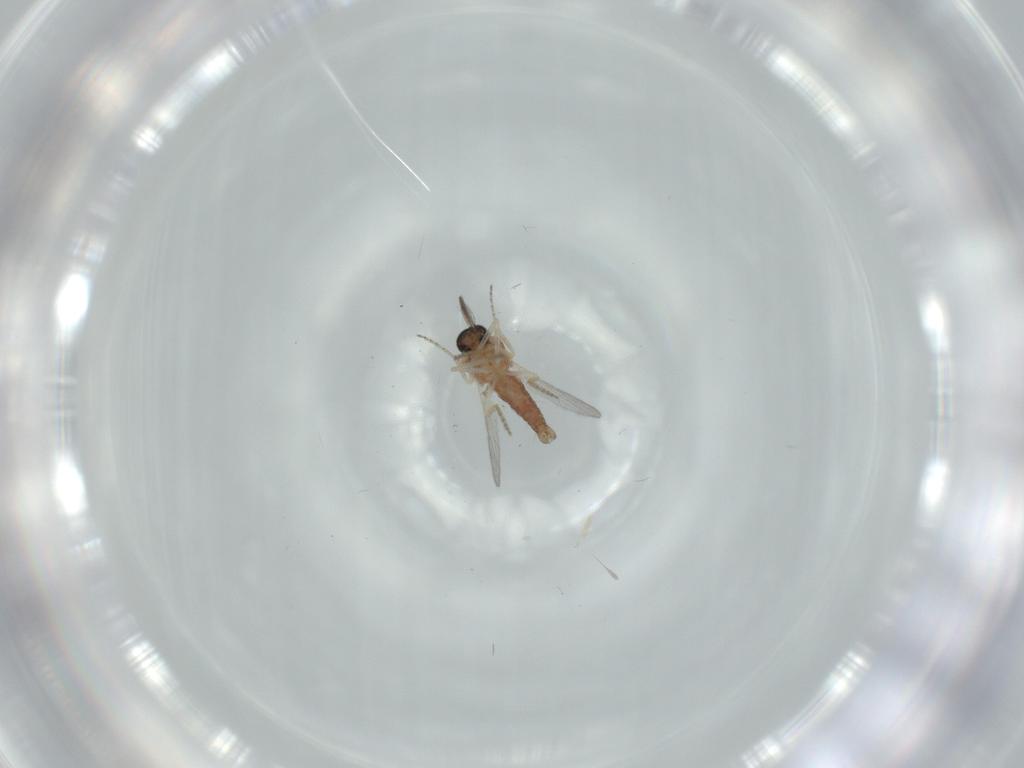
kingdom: Animalia
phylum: Arthropoda
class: Insecta
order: Diptera
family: Ceratopogonidae
